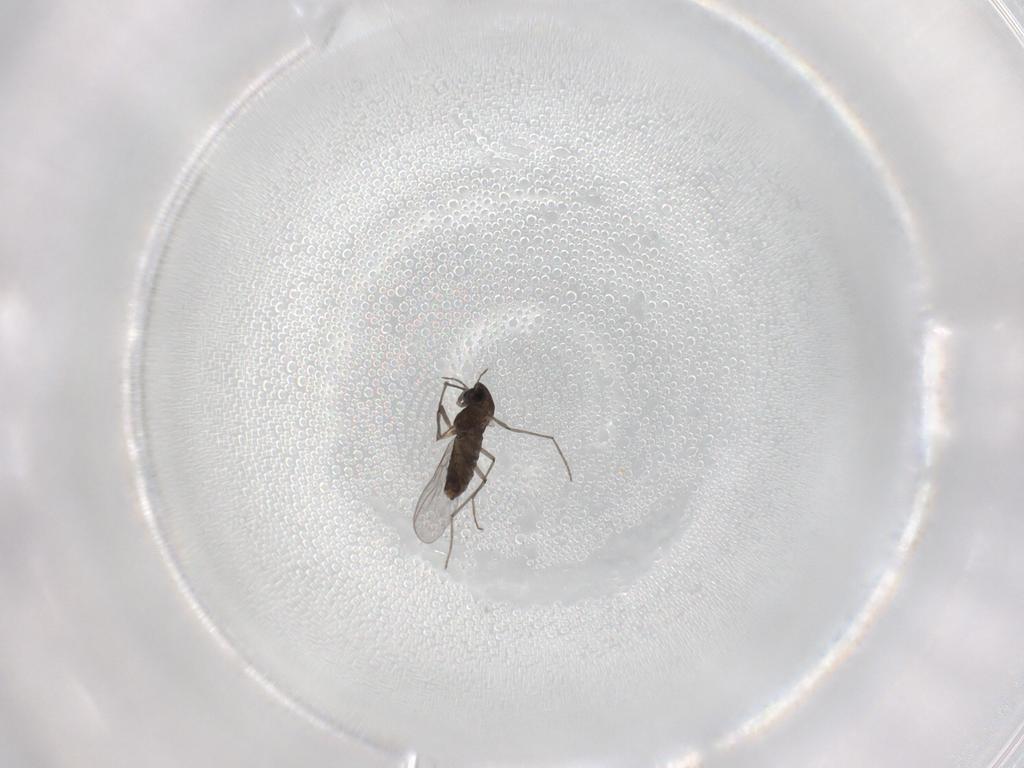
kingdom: Animalia
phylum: Arthropoda
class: Insecta
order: Diptera
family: Chironomidae
